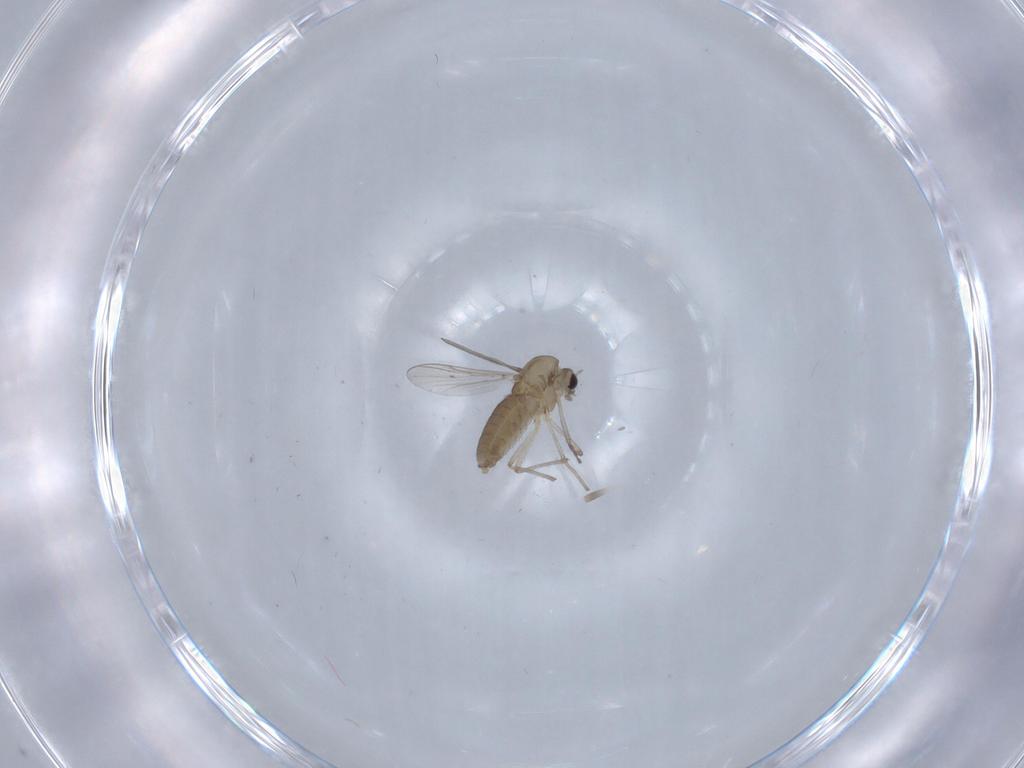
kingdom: Animalia
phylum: Arthropoda
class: Insecta
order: Diptera
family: Chironomidae
